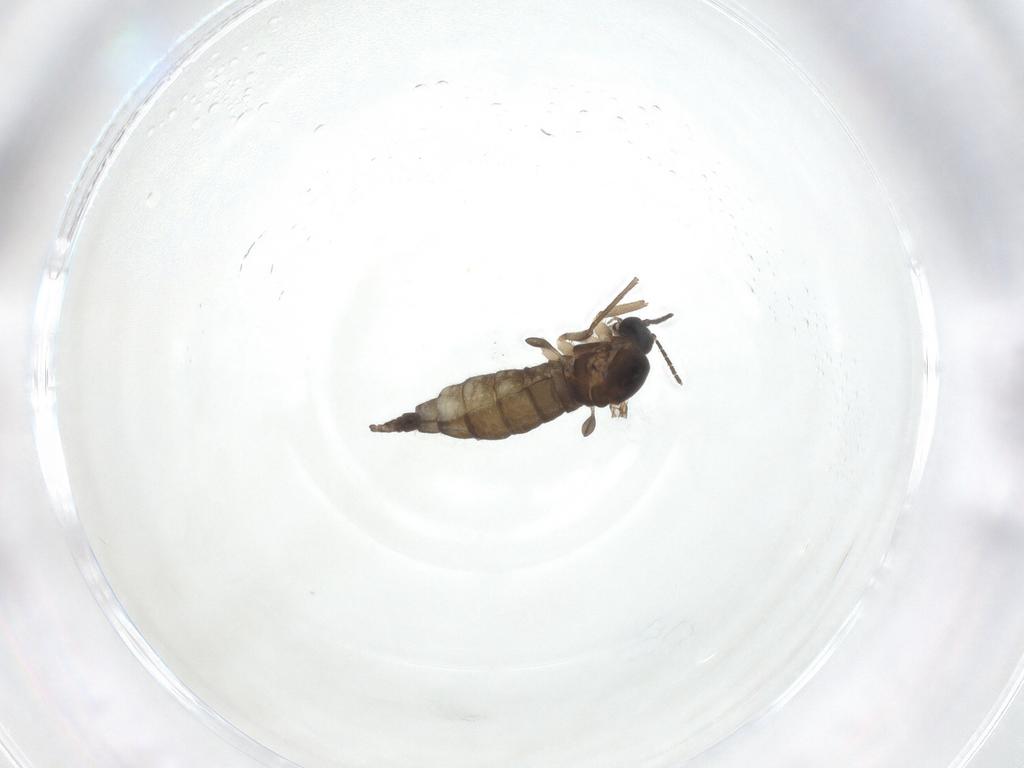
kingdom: Animalia
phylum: Arthropoda
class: Insecta
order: Diptera
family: Sciaridae
